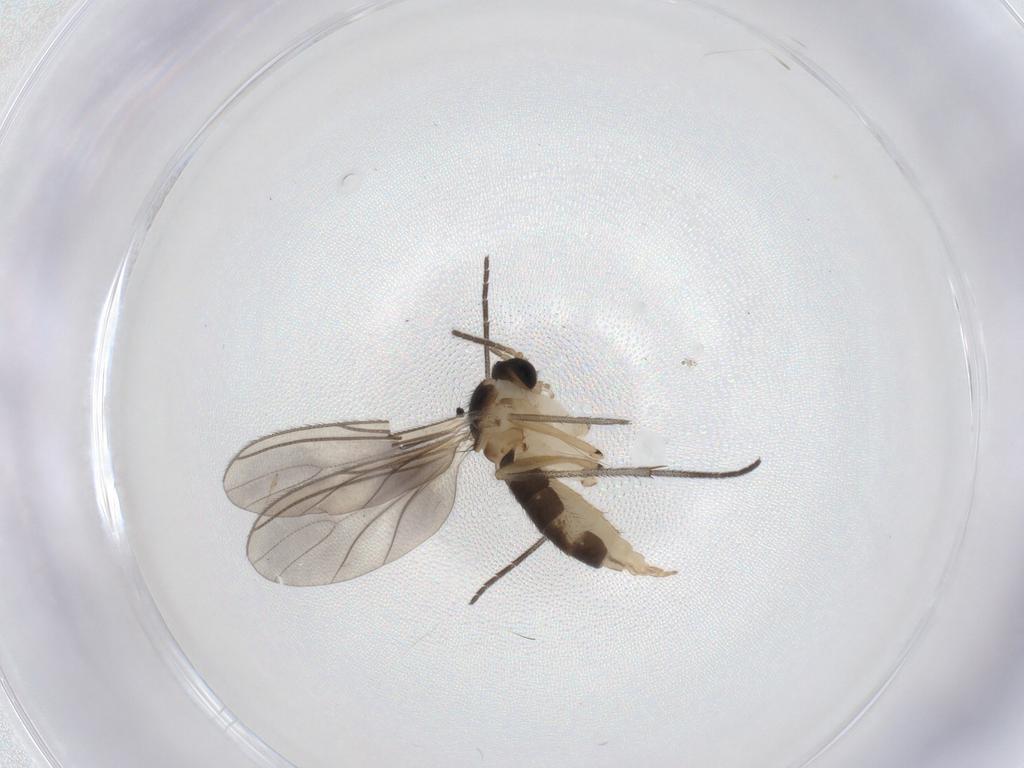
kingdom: Animalia
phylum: Arthropoda
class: Insecta
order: Diptera
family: Sciaridae
